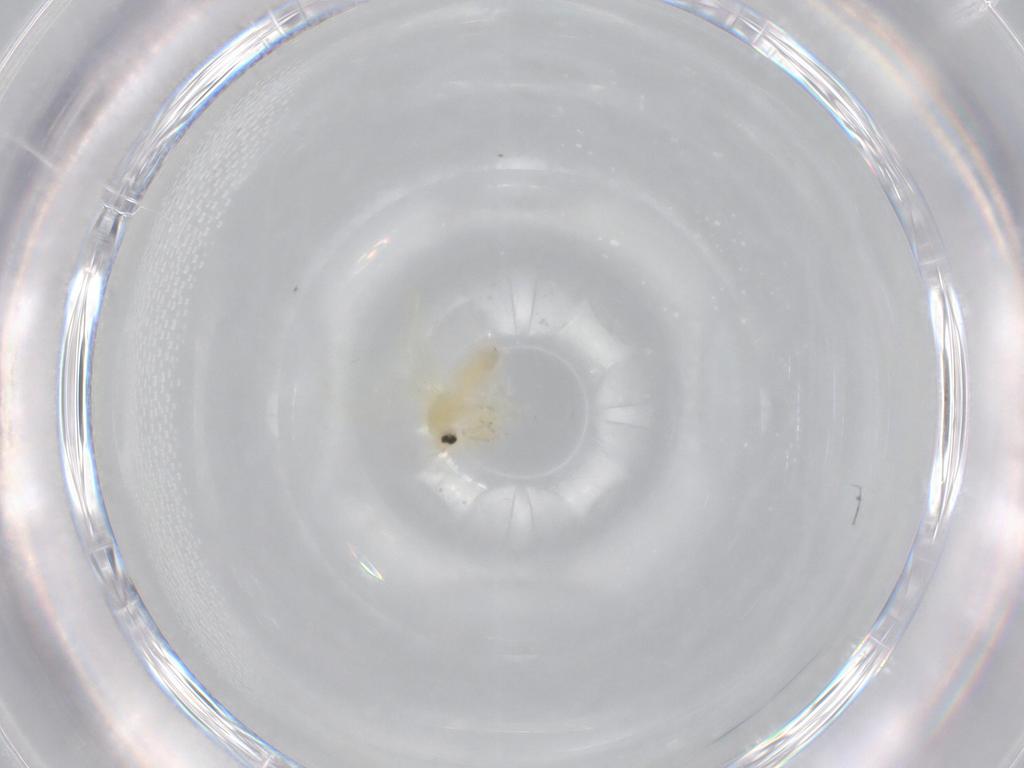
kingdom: Animalia
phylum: Arthropoda
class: Insecta
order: Hemiptera
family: Aleyrodidae
